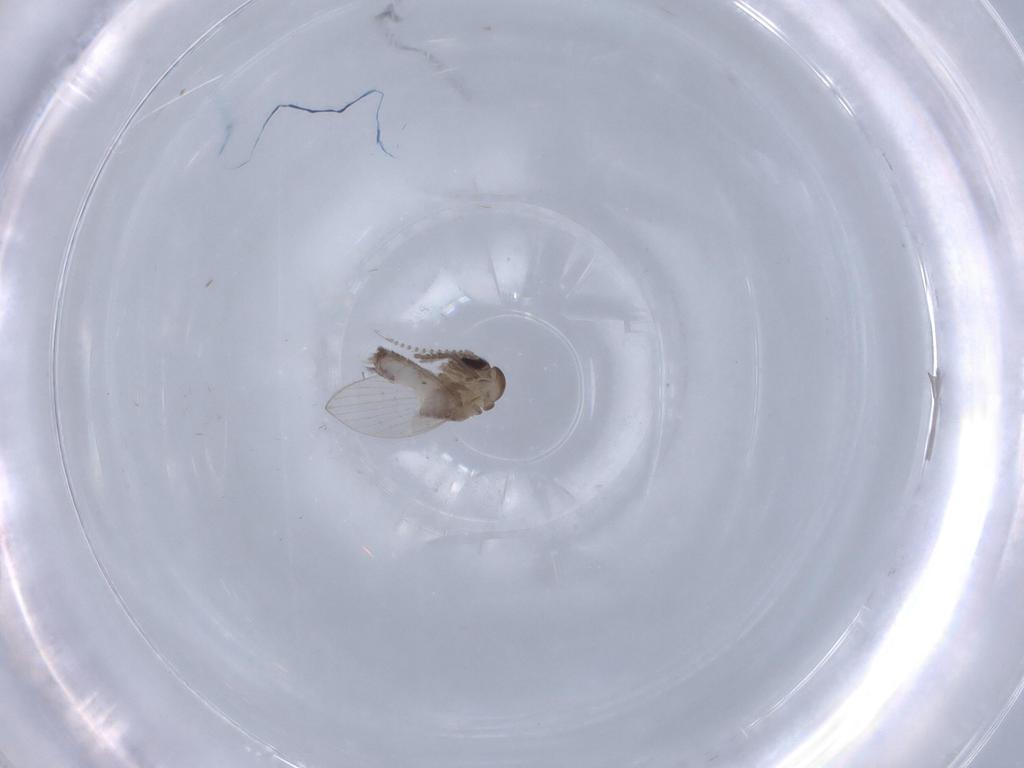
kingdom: Animalia
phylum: Arthropoda
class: Insecta
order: Diptera
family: Psychodidae
